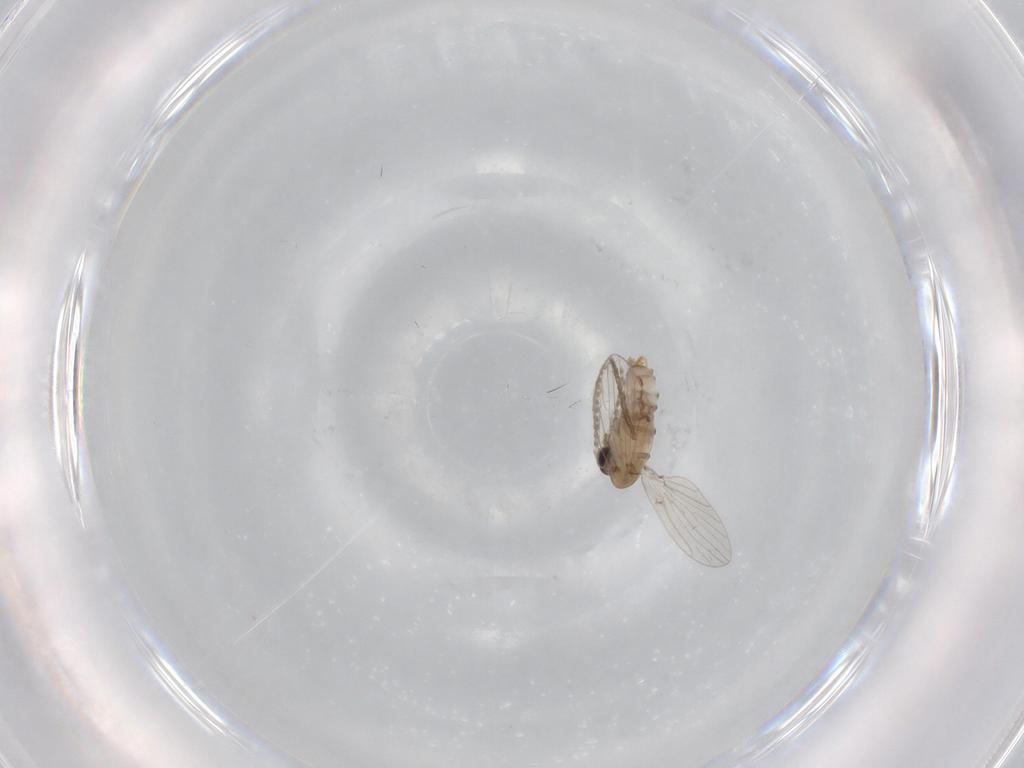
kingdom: Animalia
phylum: Arthropoda
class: Insecta
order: Diptera
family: Psychodidae
